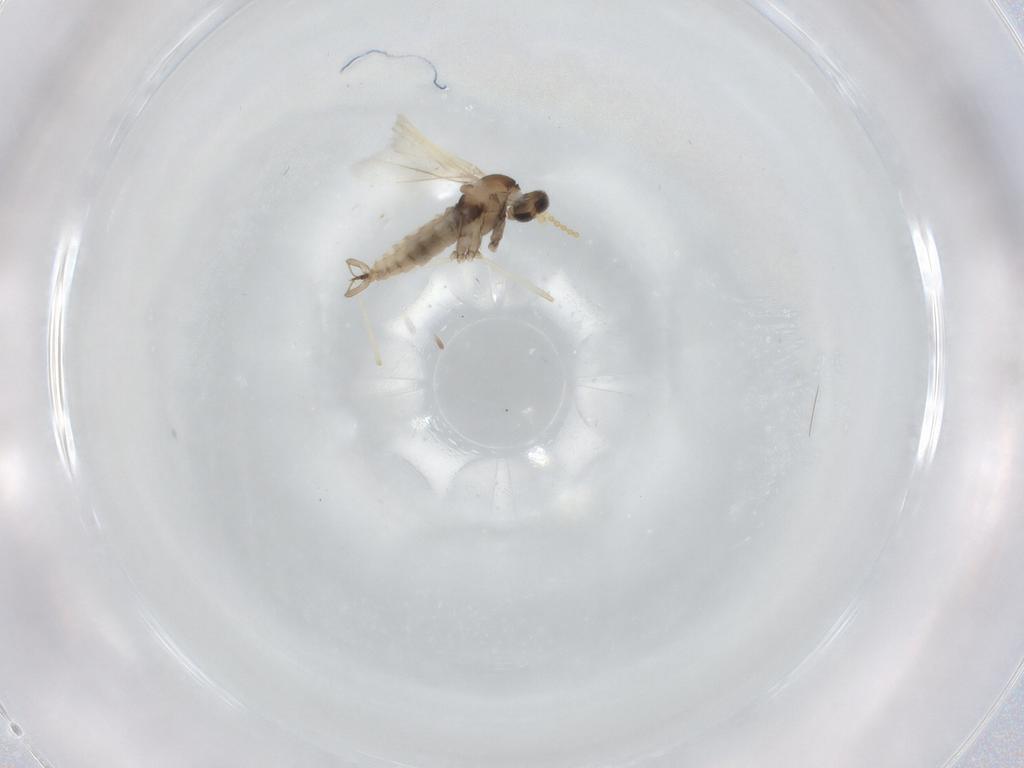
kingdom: Animalia
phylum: Arthropoda
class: Insecta
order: Diptera
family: Cecidomyiidae
